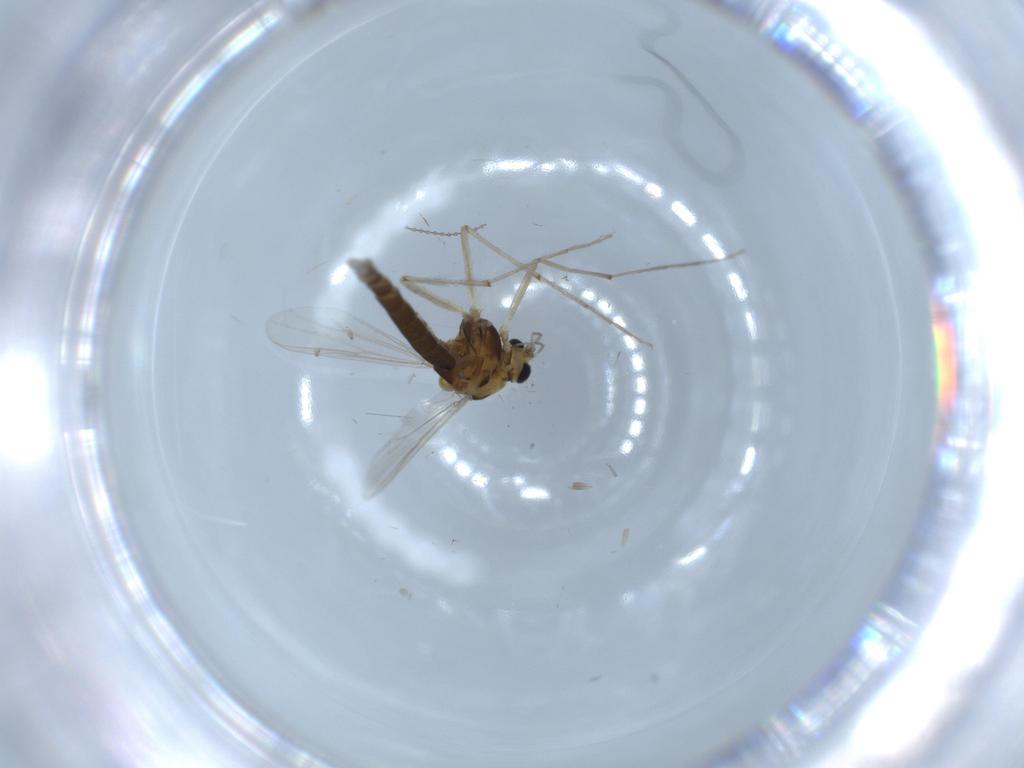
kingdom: Animalia
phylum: Arthropoda
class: Insecta
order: Diptera
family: Chironomidae
